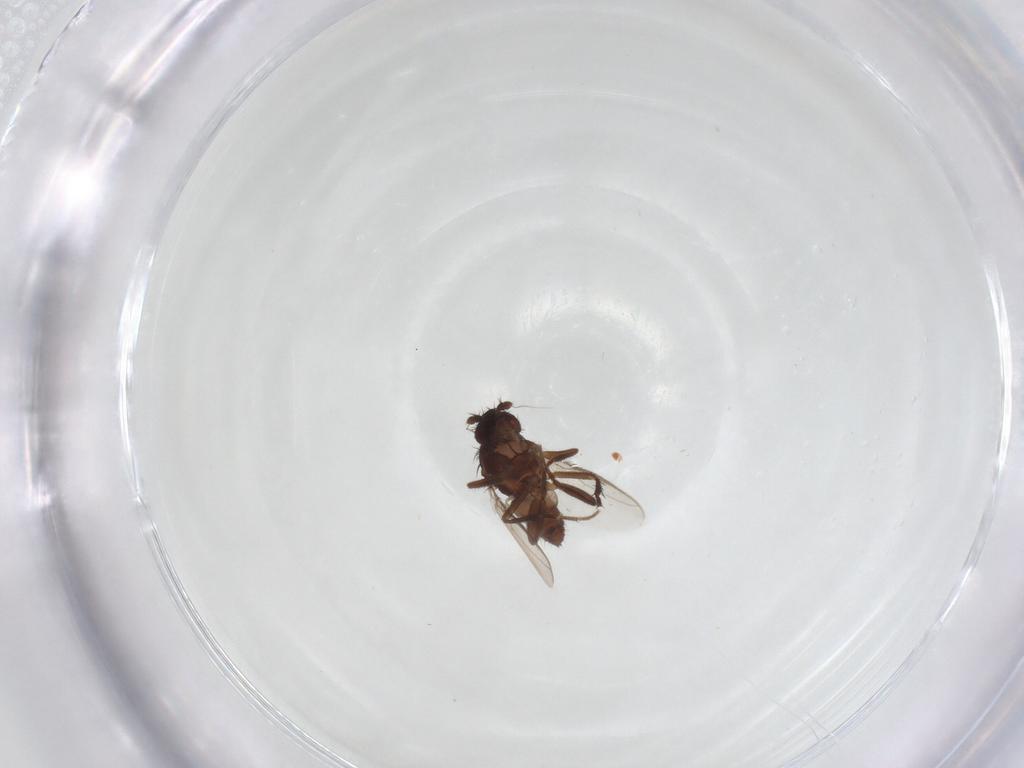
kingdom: Animalia
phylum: Arthropoda
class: Insecta
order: Diptera
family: Sphaeroceridae
